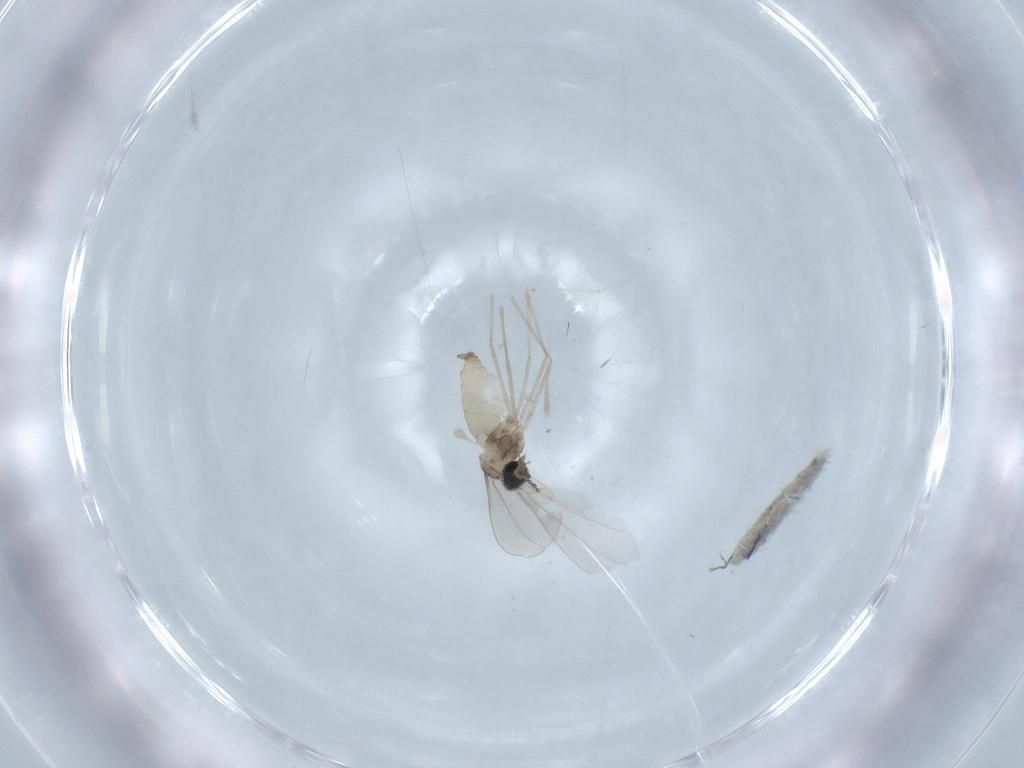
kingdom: Animalia
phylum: Arthropoda
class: Insecta
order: Diptera
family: Cecidomyiidae
